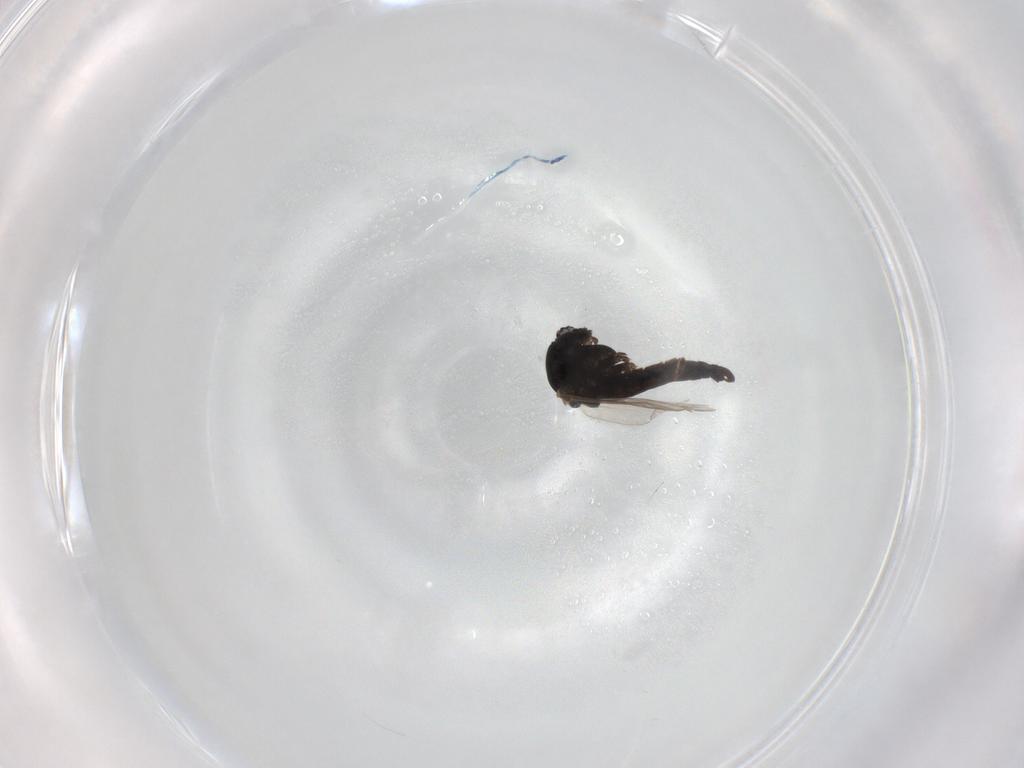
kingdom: Animalia
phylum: Arthropoda
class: Insecta
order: Diptera
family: Chironomidae
